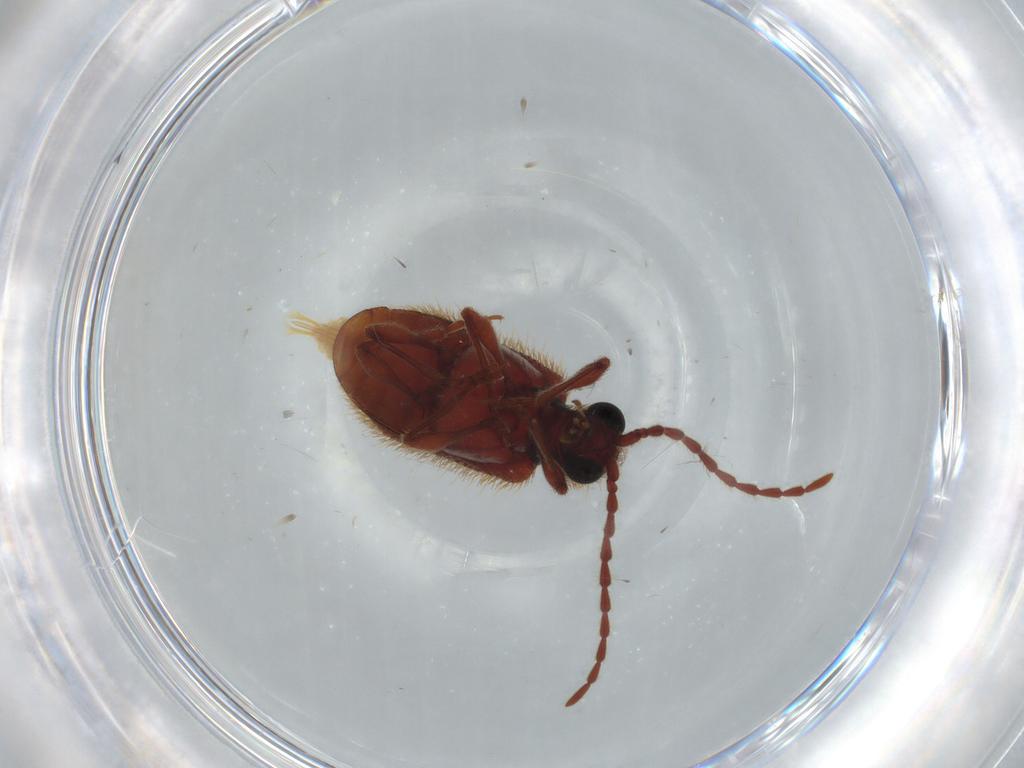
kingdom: Animalia
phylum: Arthropoda
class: Insecta
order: Coleoptera
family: Ptinidae
